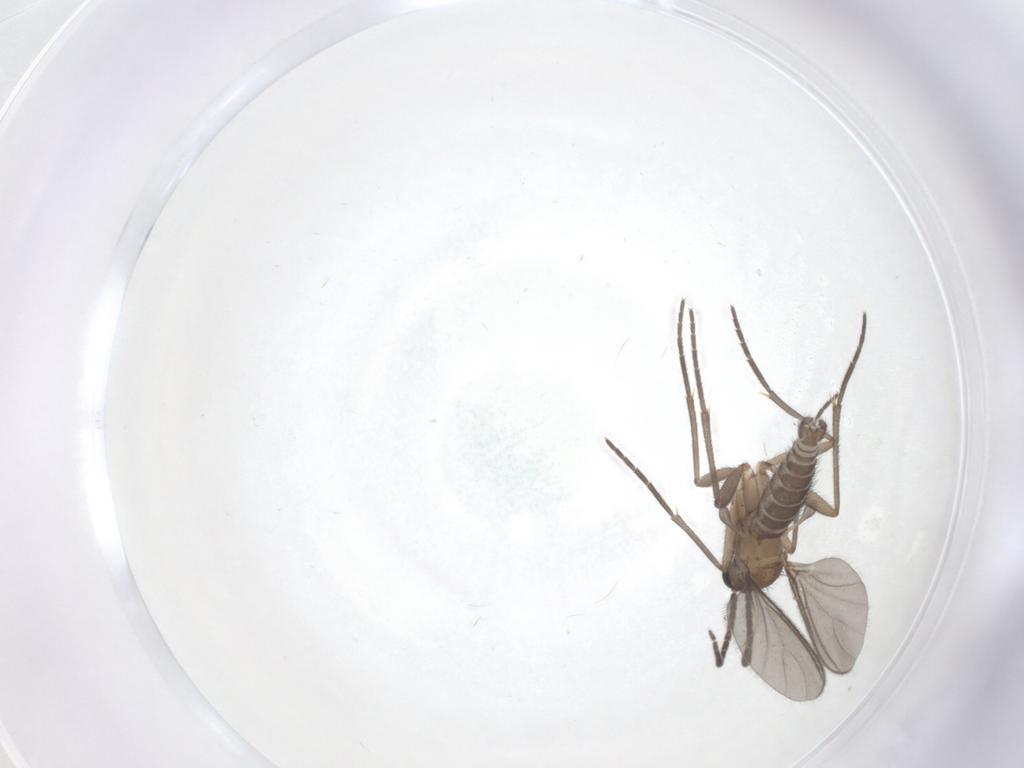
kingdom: Animalia
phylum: Arthropoda
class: Insecta
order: Diptera
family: Sciaridae
